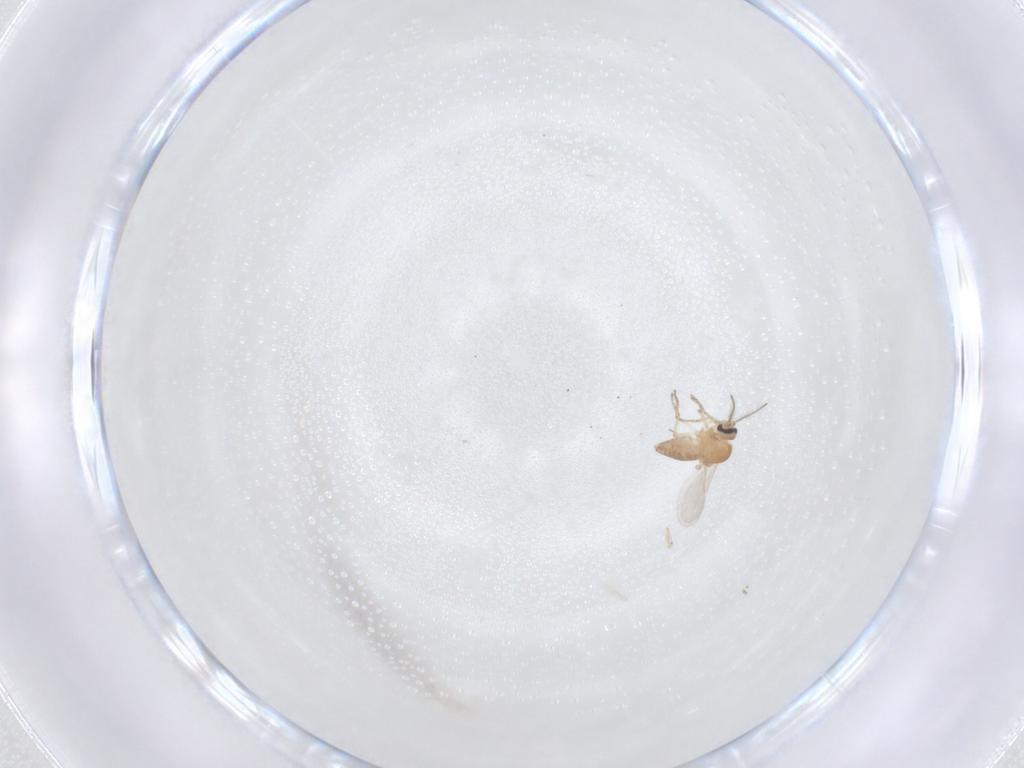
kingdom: Animalia
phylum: Arthropoda
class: Insecta
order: Diptera
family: Ceratopogonidae
